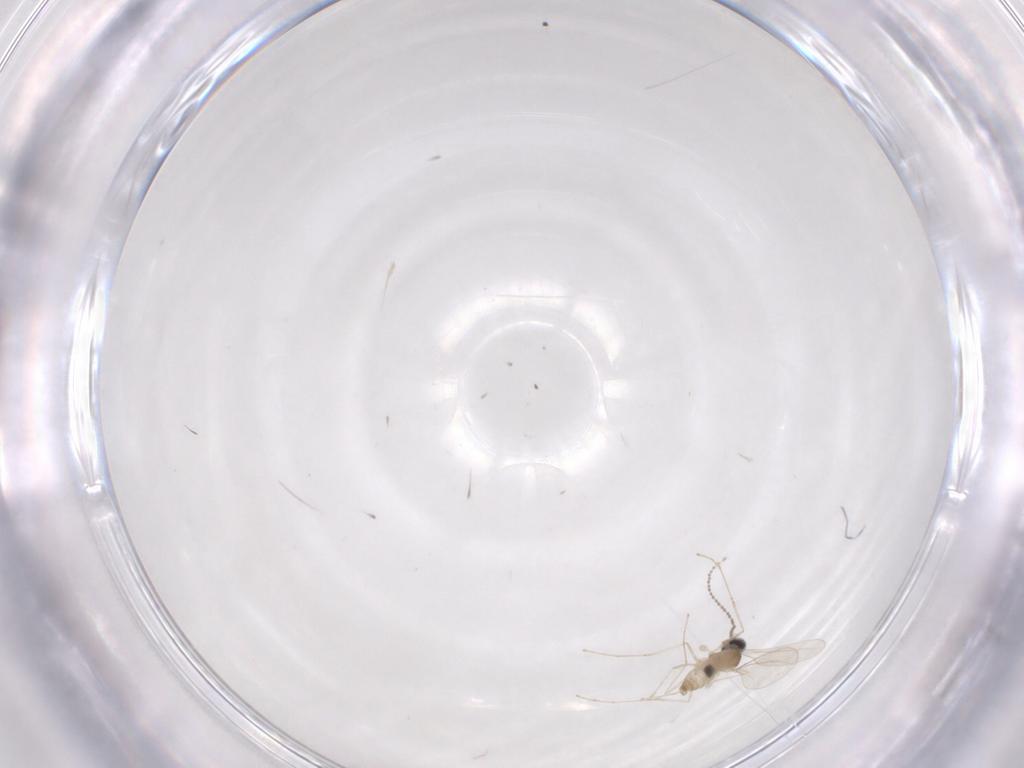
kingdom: Animalia
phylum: Arthropoda
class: Insecta
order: Diptera
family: Cecidomyiidae
